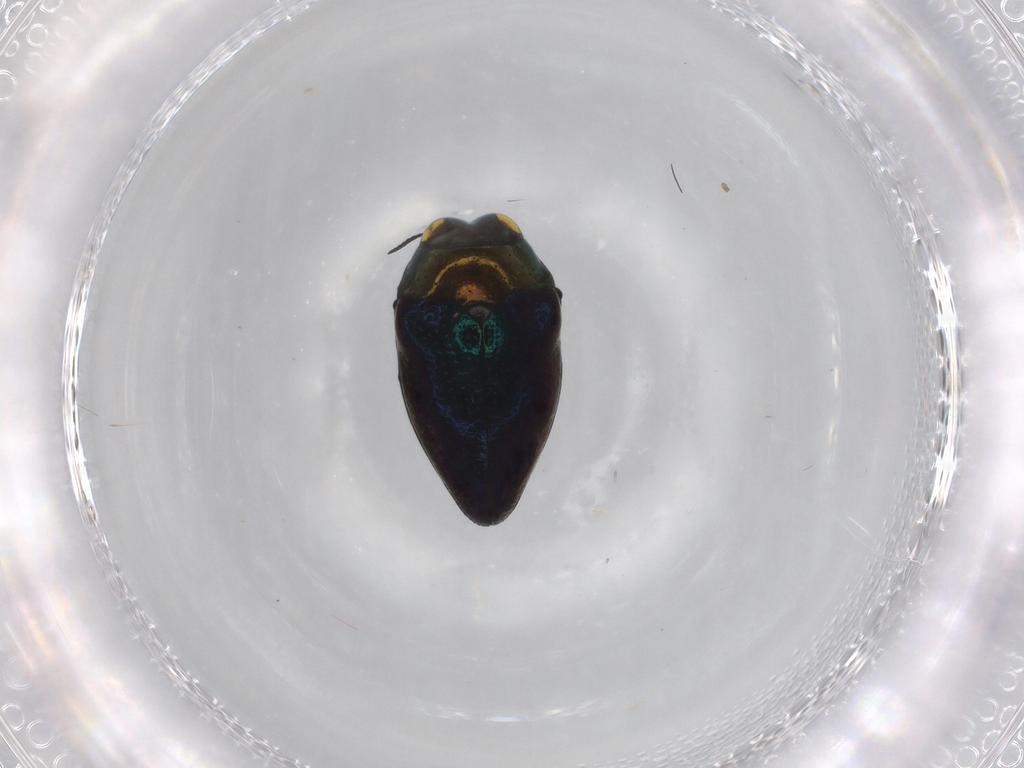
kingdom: Animalia
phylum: Arthropoda
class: Insecta
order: Coleoptera
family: Buprestidae
